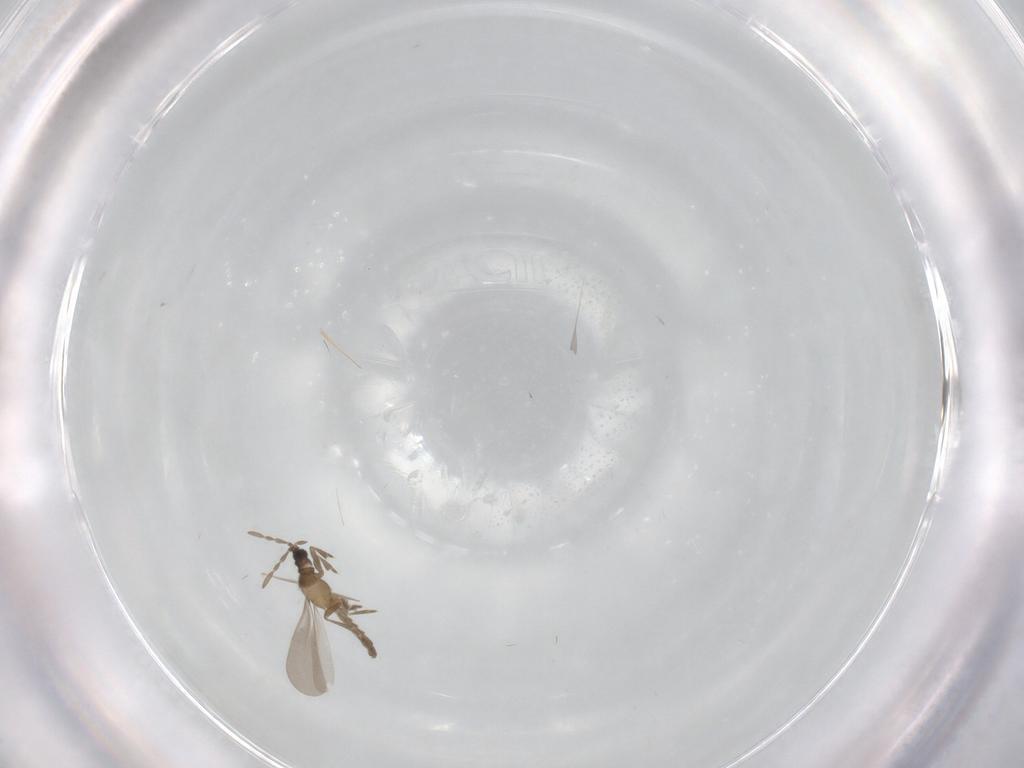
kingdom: Animalia
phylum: Arthropoda
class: Insecta
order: Hemiptera
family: Enicocephalidae
